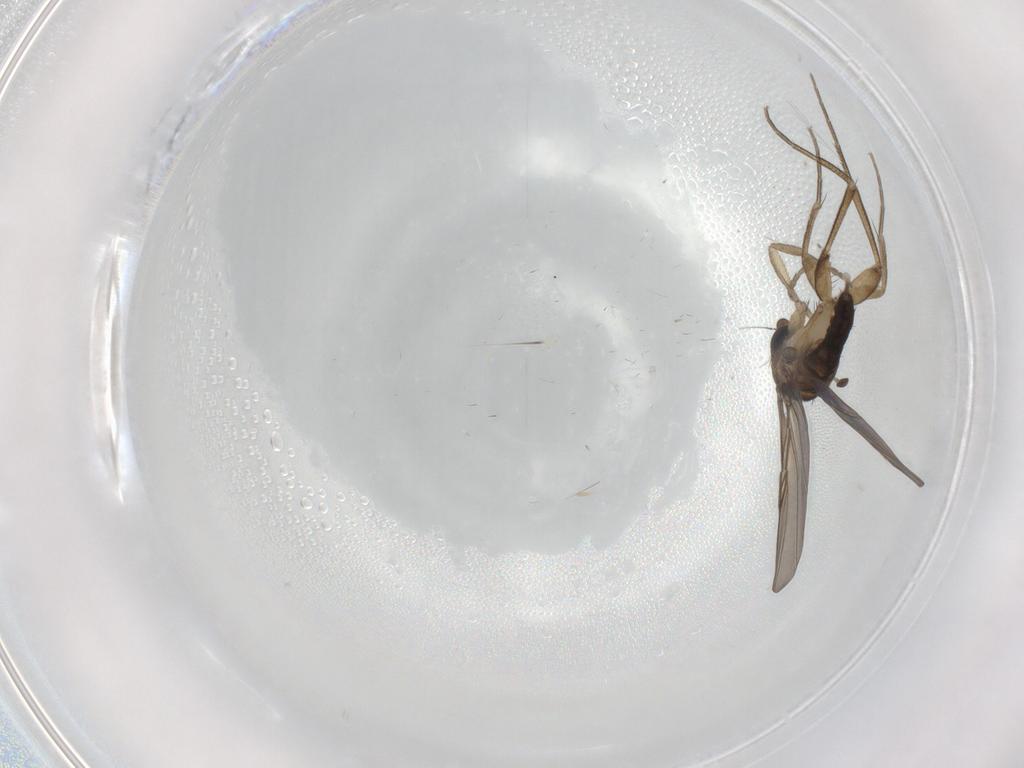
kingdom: Animalia
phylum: Arthropoda
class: Insecta
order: Diptera
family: Phoridae
